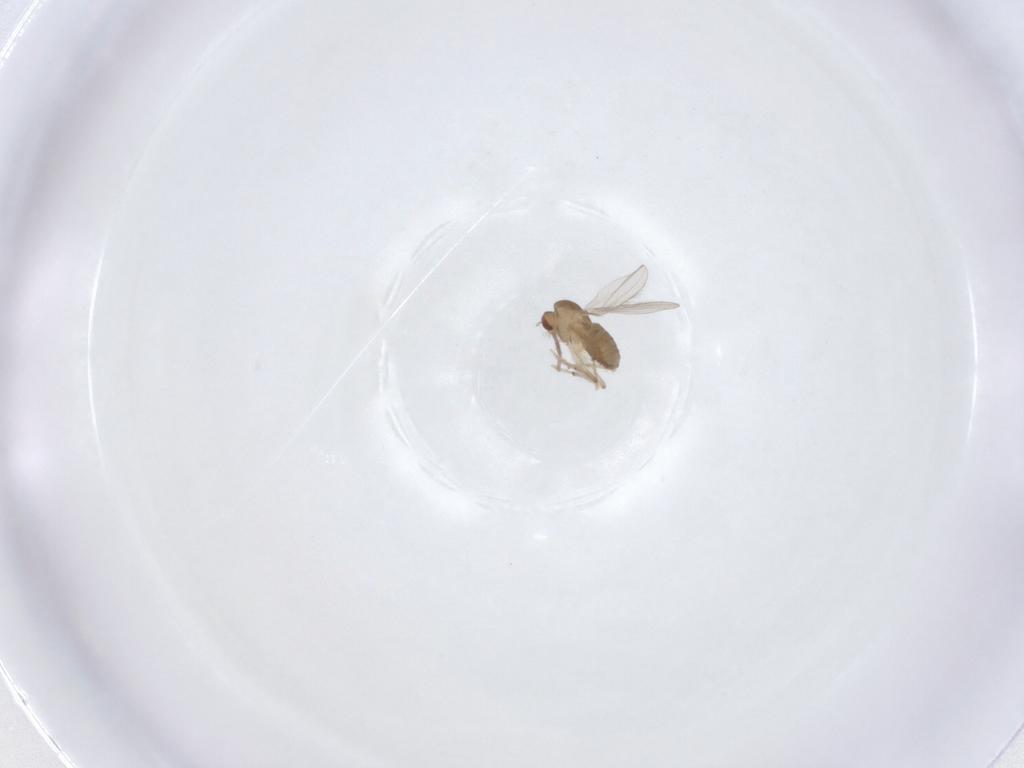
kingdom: Animalia
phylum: Arthropoda
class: Insecta
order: Diptera
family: Chironomidae
